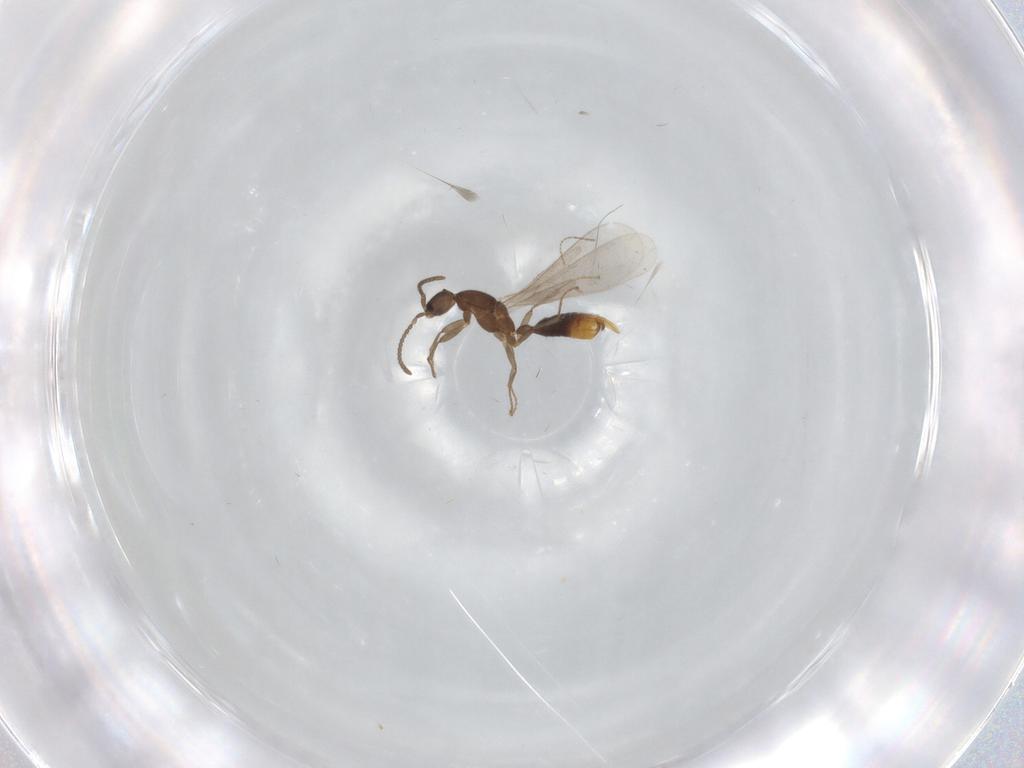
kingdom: Animalia
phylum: Arthropoda
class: Insecta
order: Hymenoptera
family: Formicidae
